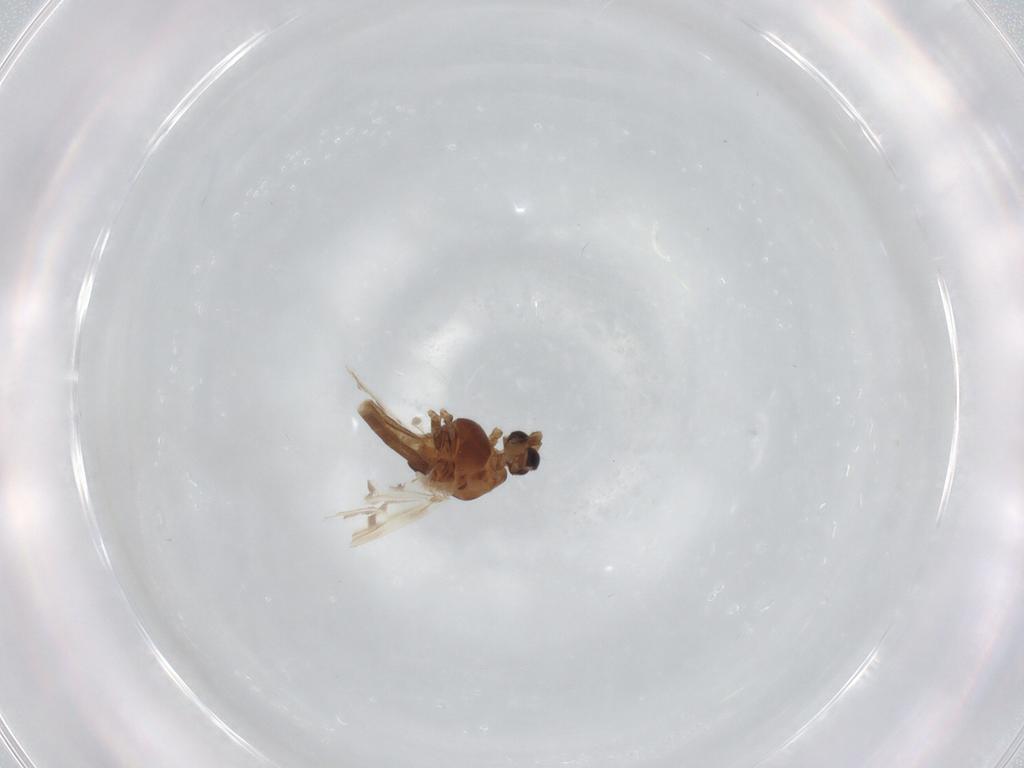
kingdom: Animalia
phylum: Arthropoda
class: Insecta
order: Diptera
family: Chironomidae
